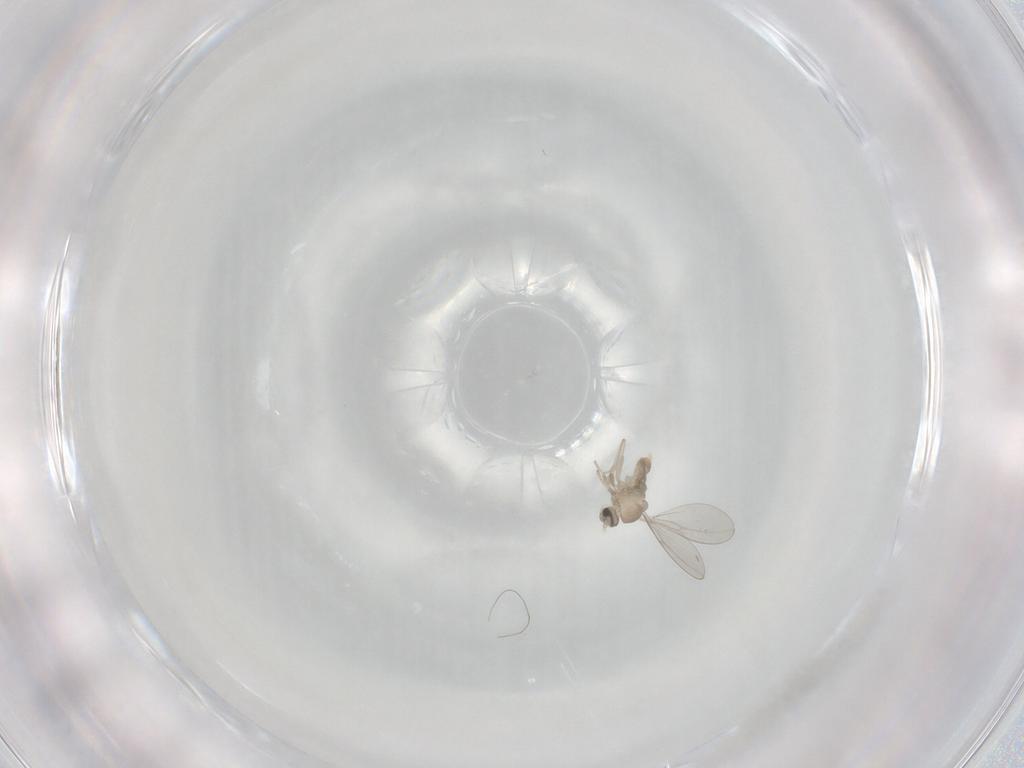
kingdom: Animalia
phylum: Arthropoda
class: Insecta
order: Diptera
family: Cecidomyiidae
